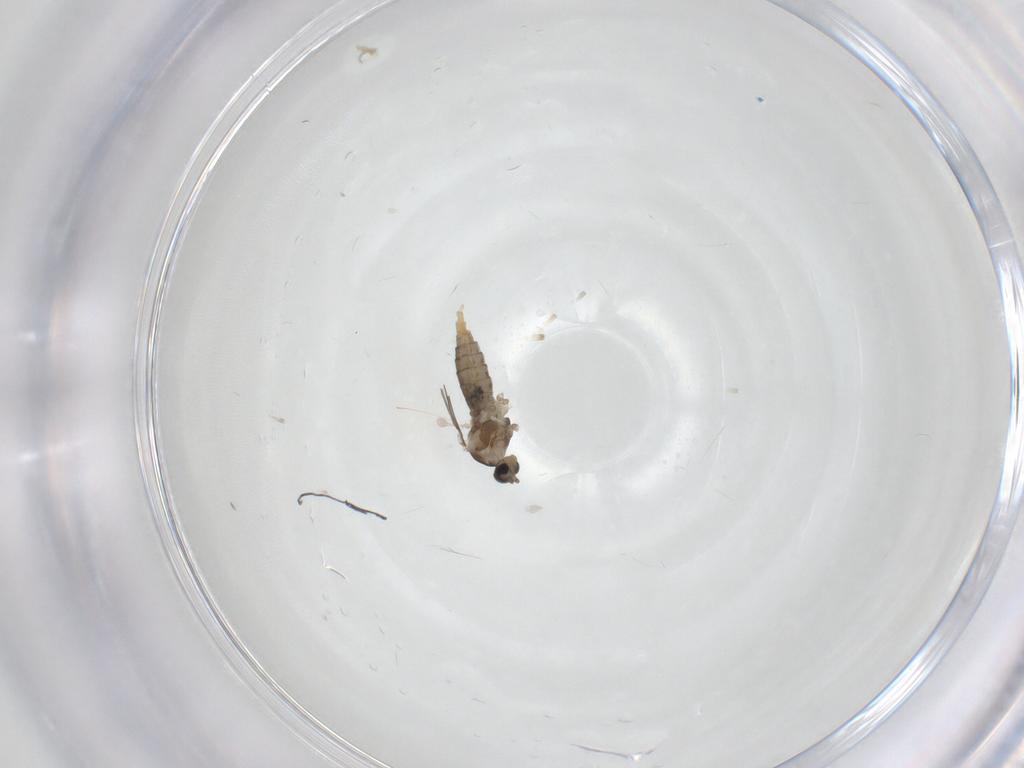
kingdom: Animalia
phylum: Arthropoda
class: Insecta
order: Diptera
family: Cecidomyiidae
